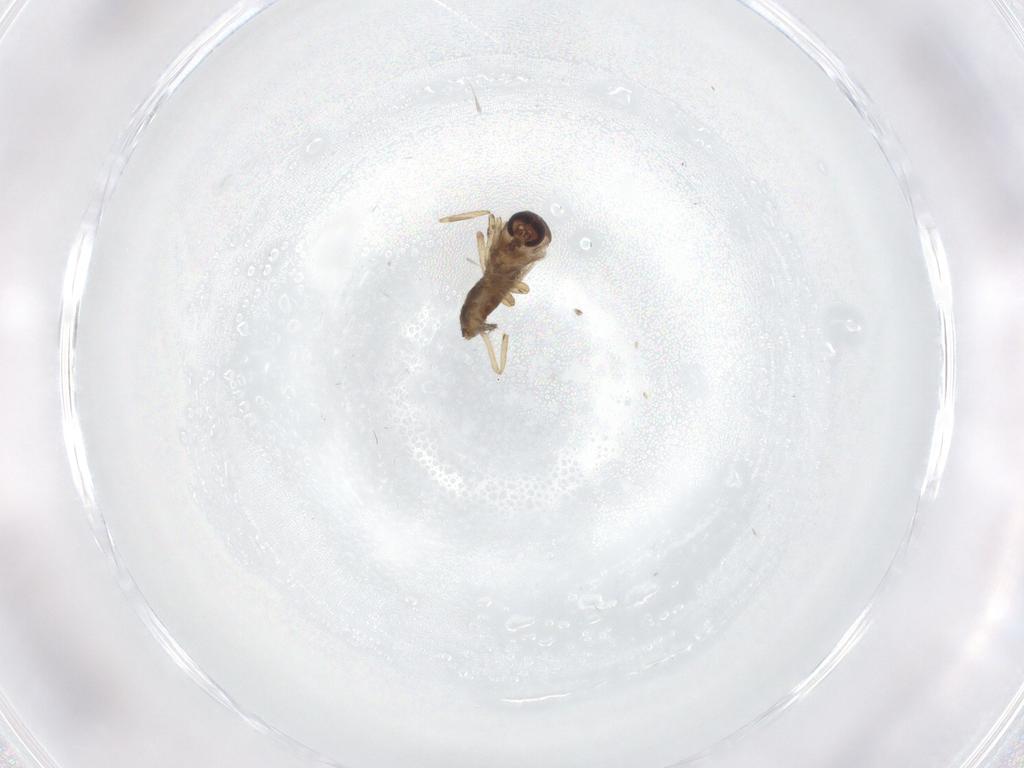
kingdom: Animalia
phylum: Arthropoda
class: Insecta
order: Diptera
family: Ceratopogonidae
